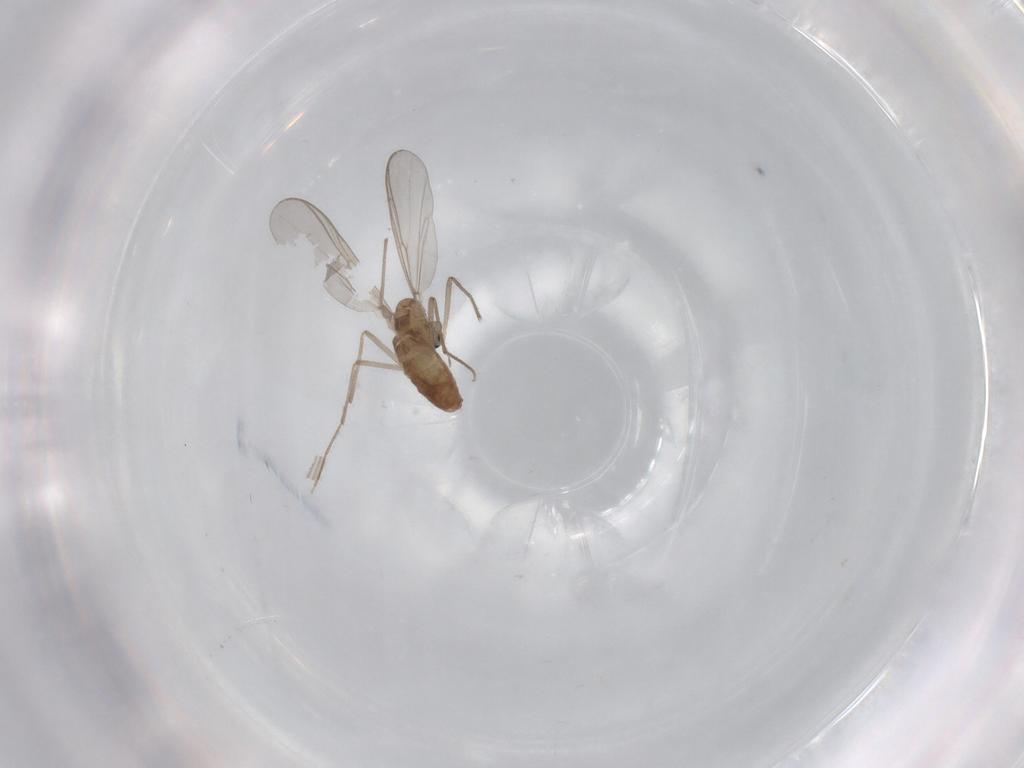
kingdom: Animalia
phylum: Arthropoda
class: Insecta
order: Diptera
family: Chironomidae
